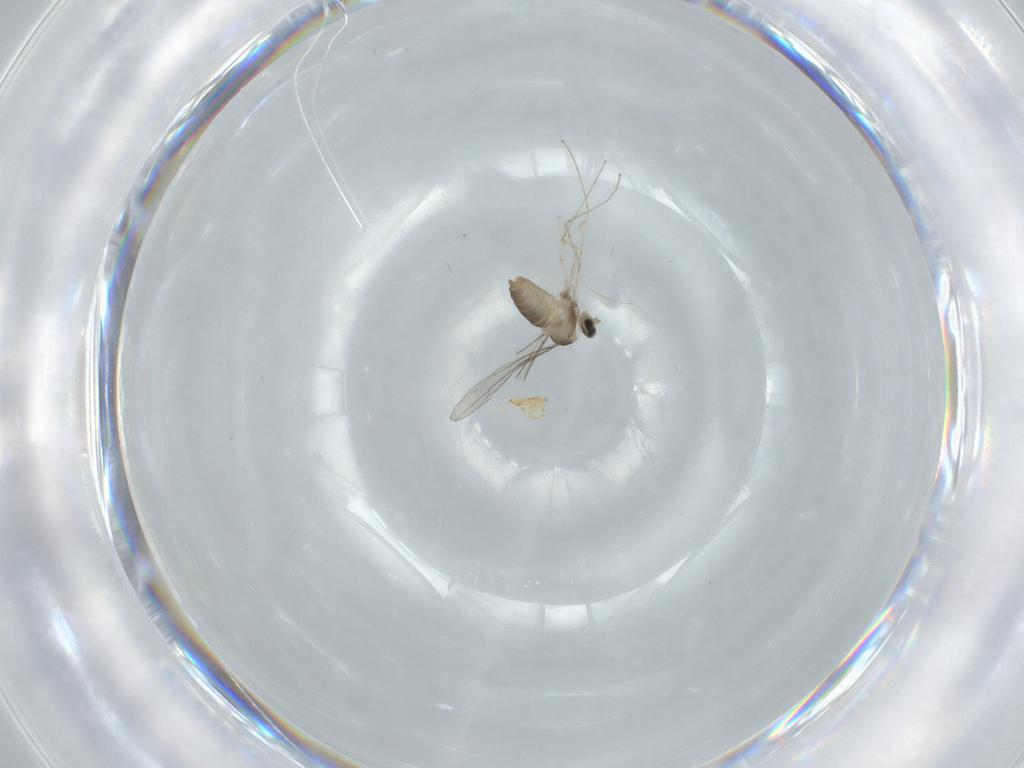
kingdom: Animalia
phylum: Arthropoda
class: Insecta
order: Diptera
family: Cecidomyiidae
